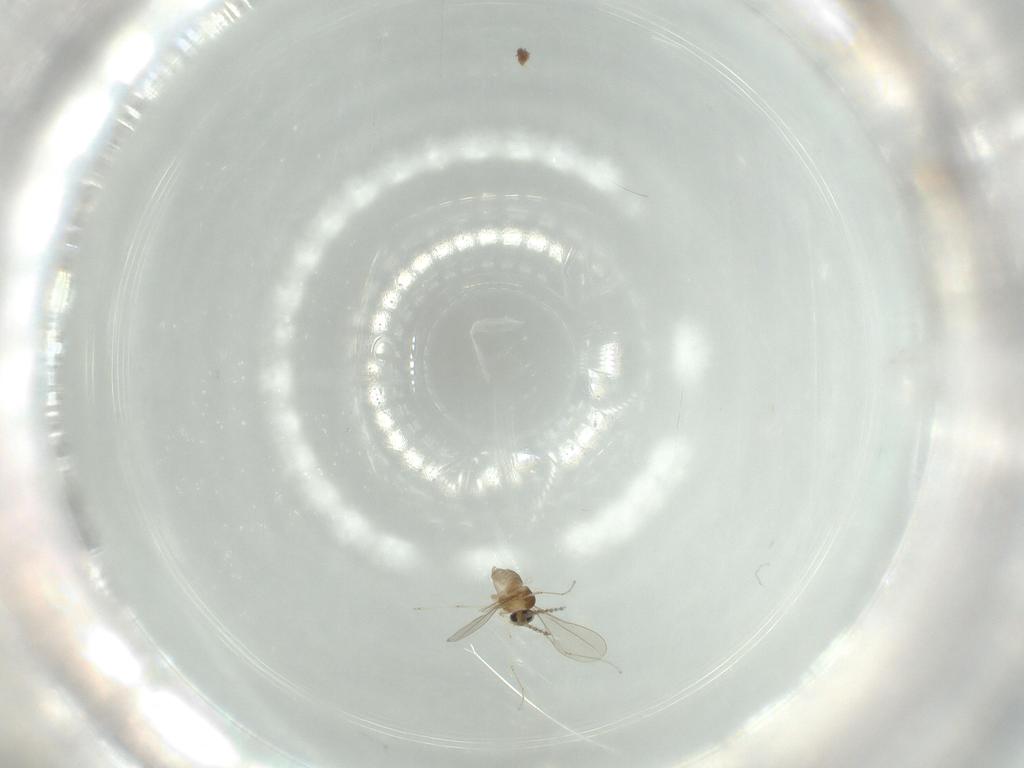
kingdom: Animalia
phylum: Arthropoda
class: Insecta
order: Diptera
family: Cecidomyiidae
